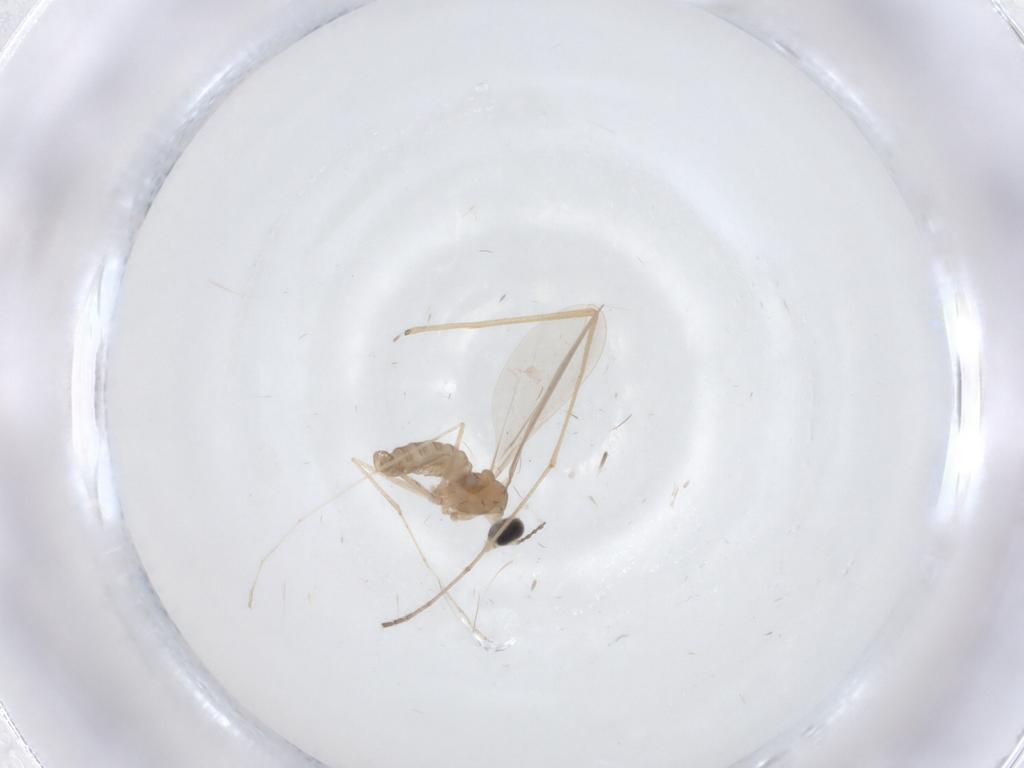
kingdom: Animalia
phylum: Arthropoda
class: Insecta
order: Diptera
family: Cecidomyiidae
